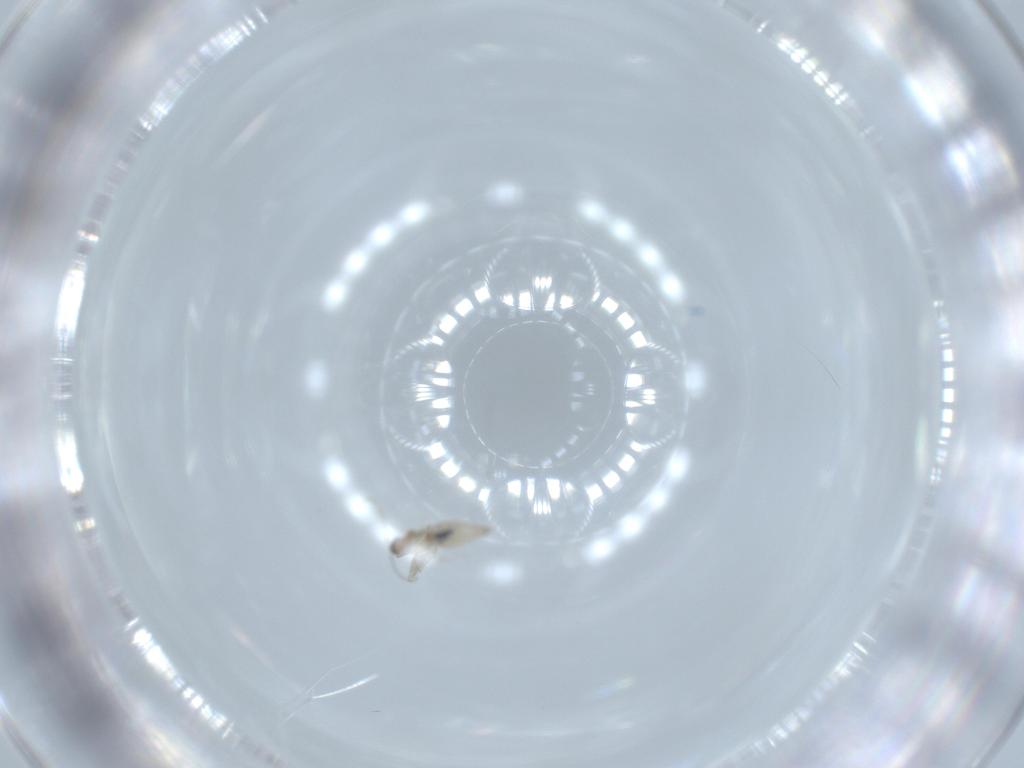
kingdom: Animalia
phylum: Arthropoda
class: Insecta
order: Diptera
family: Cecidomyiidae
